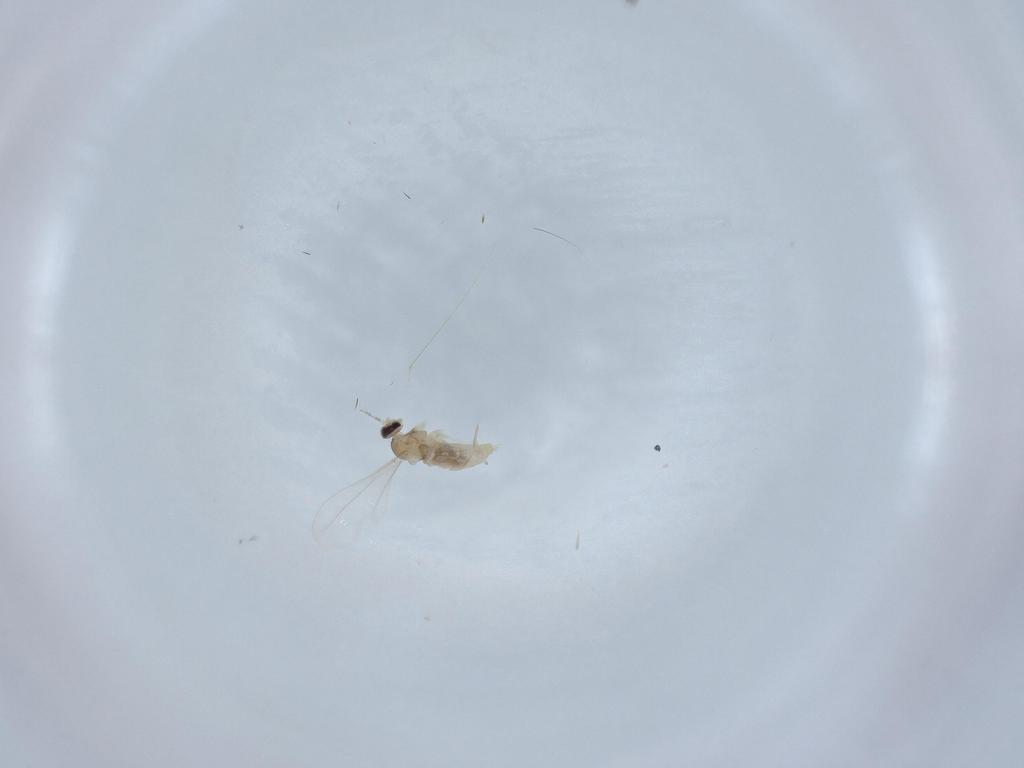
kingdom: Animalia
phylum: Arthropoda
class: Insecta
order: Diptera
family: Cecidomyiidae
